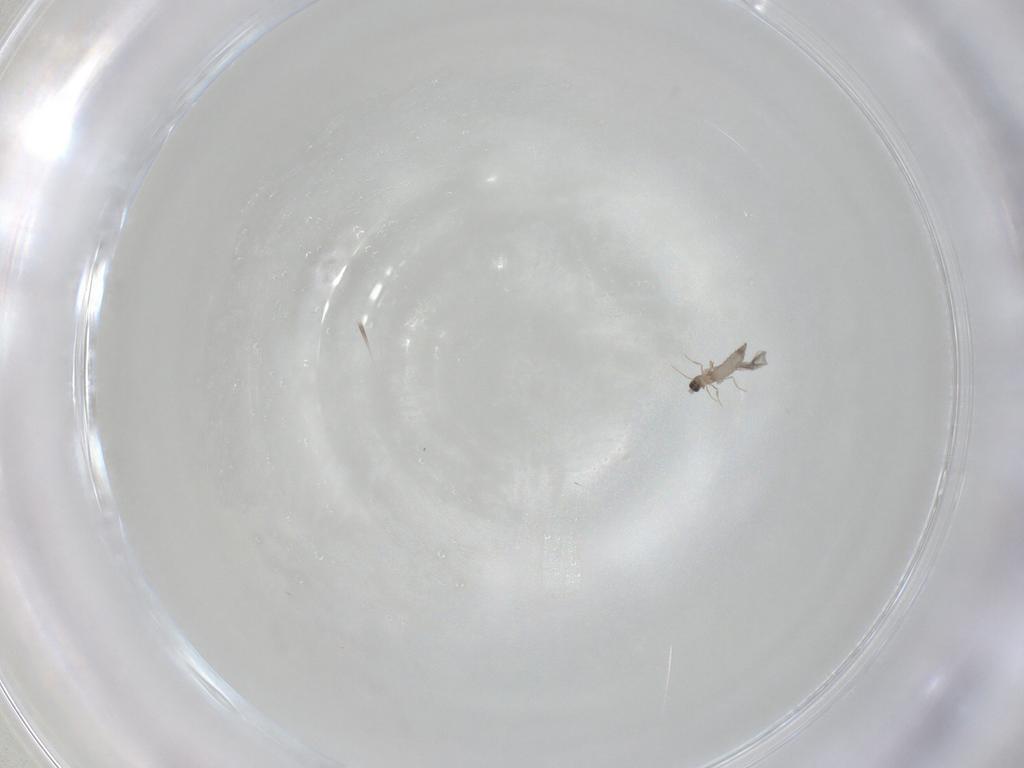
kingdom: Animalia
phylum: Arthropoda
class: Insecta
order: Diptera
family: Cecidomyiidae
